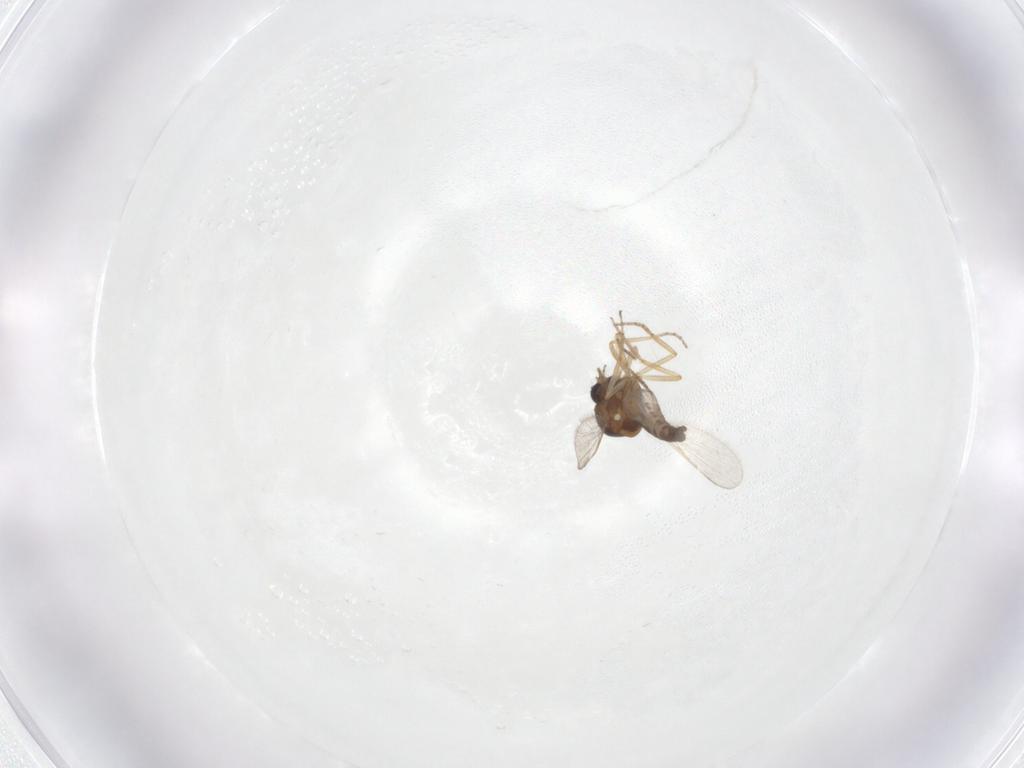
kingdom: Animalia
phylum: Arthropoda
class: Insecta
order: Diptera
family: Ceratopogonidae
